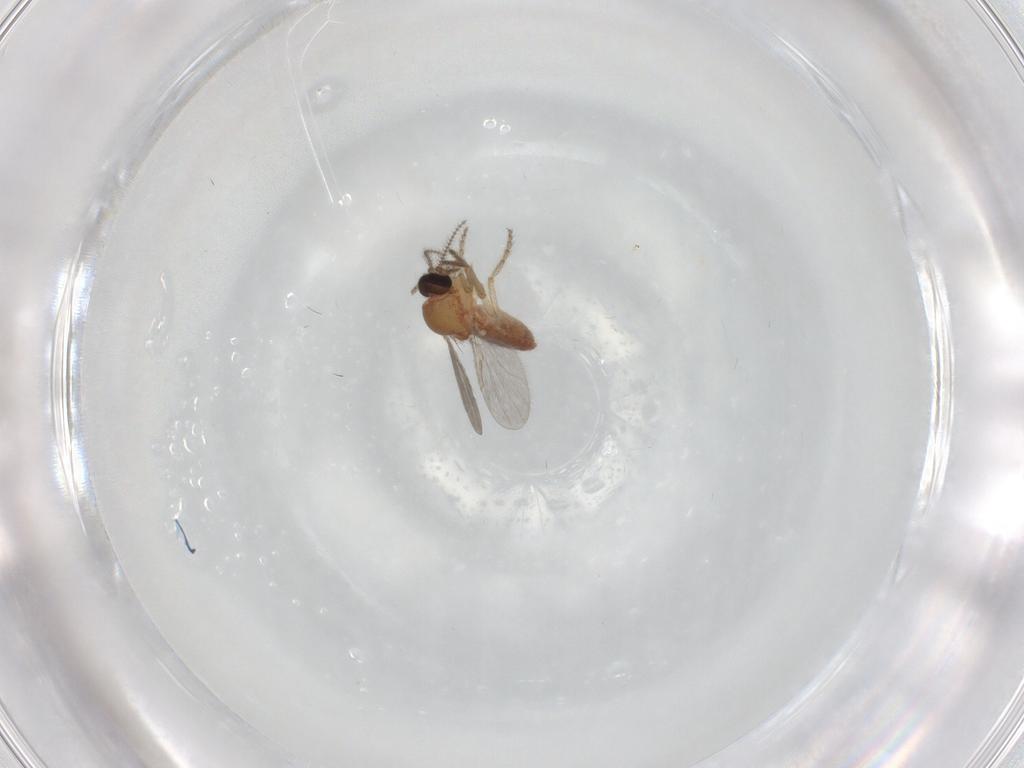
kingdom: Animalia
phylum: Arthropoda
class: Insecta
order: Diptera
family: Ceratopogonidae
